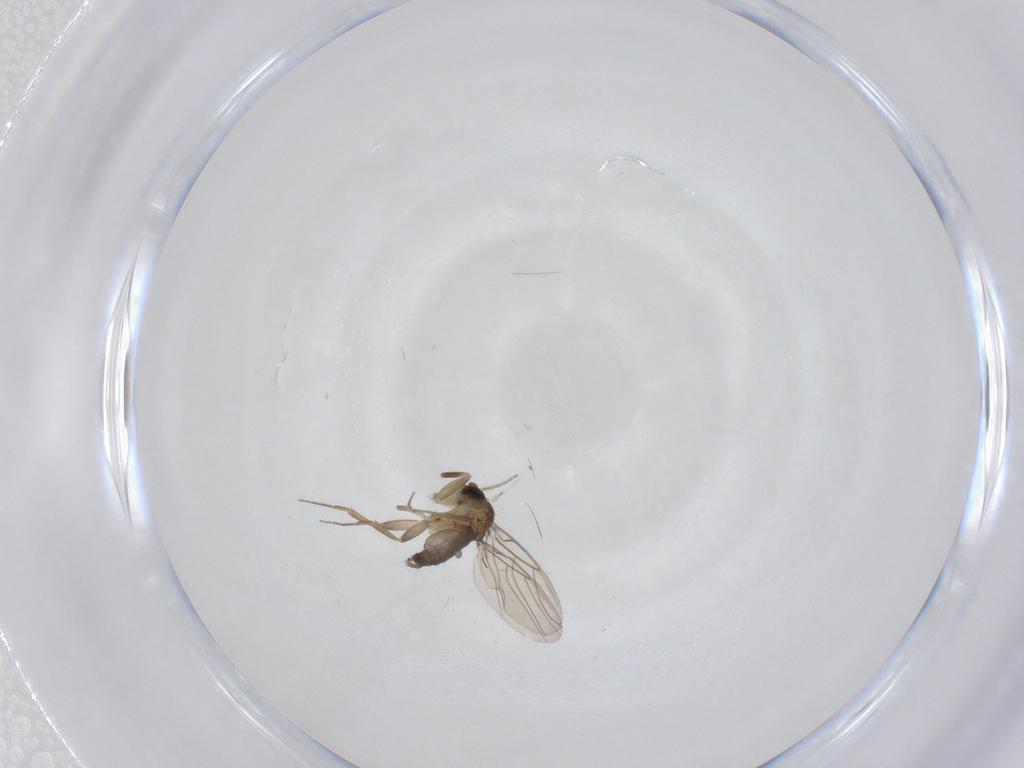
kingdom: Animalia
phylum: Arthropoda
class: Insecta
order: Diptera
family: Phoridae
